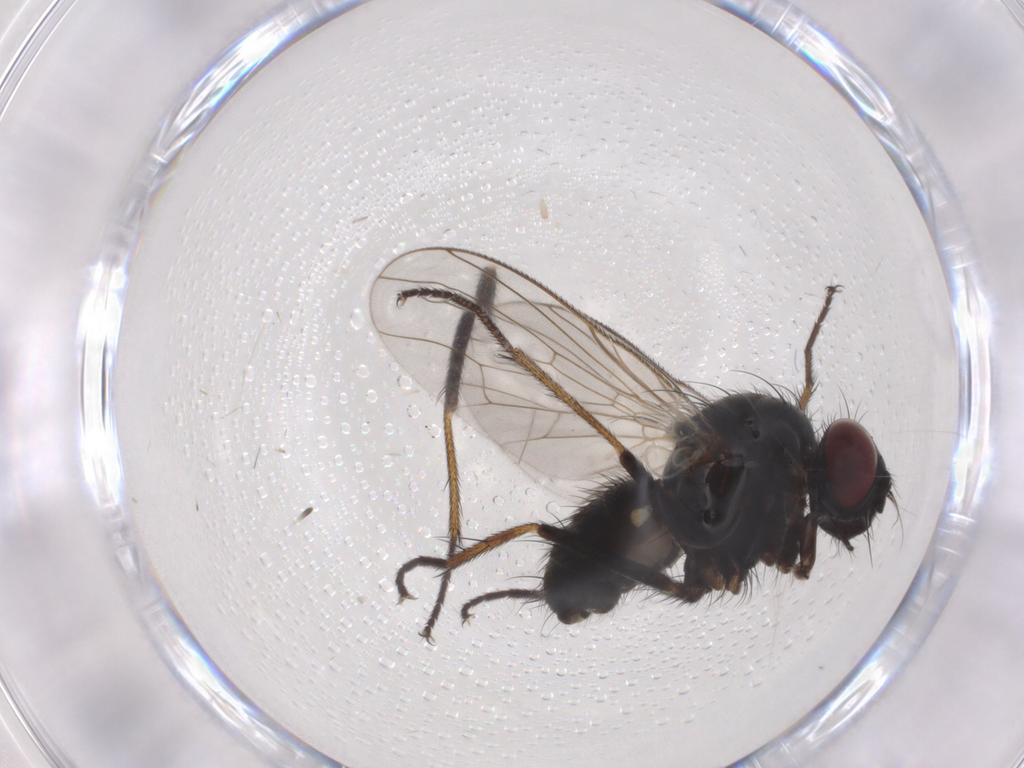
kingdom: Animalia
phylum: Arthropoda
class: Insecta
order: Diptera
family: Muscidae
